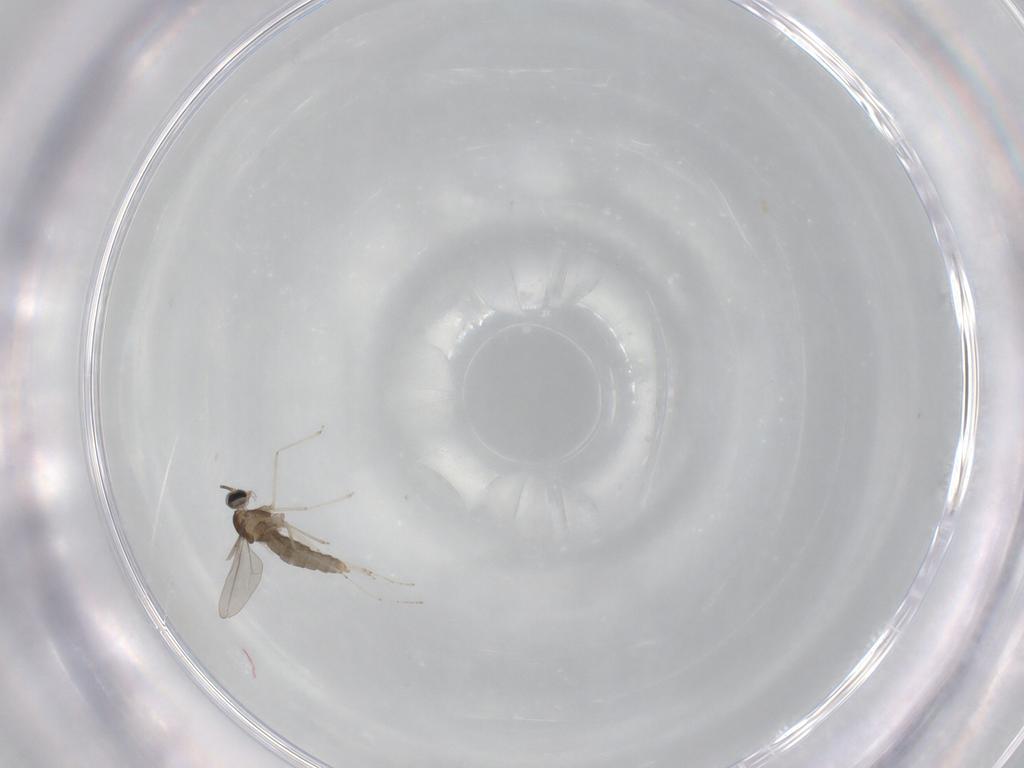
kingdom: Animalia
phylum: Arthropoda
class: Insecta
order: Diptera
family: Cecidomyiidae
